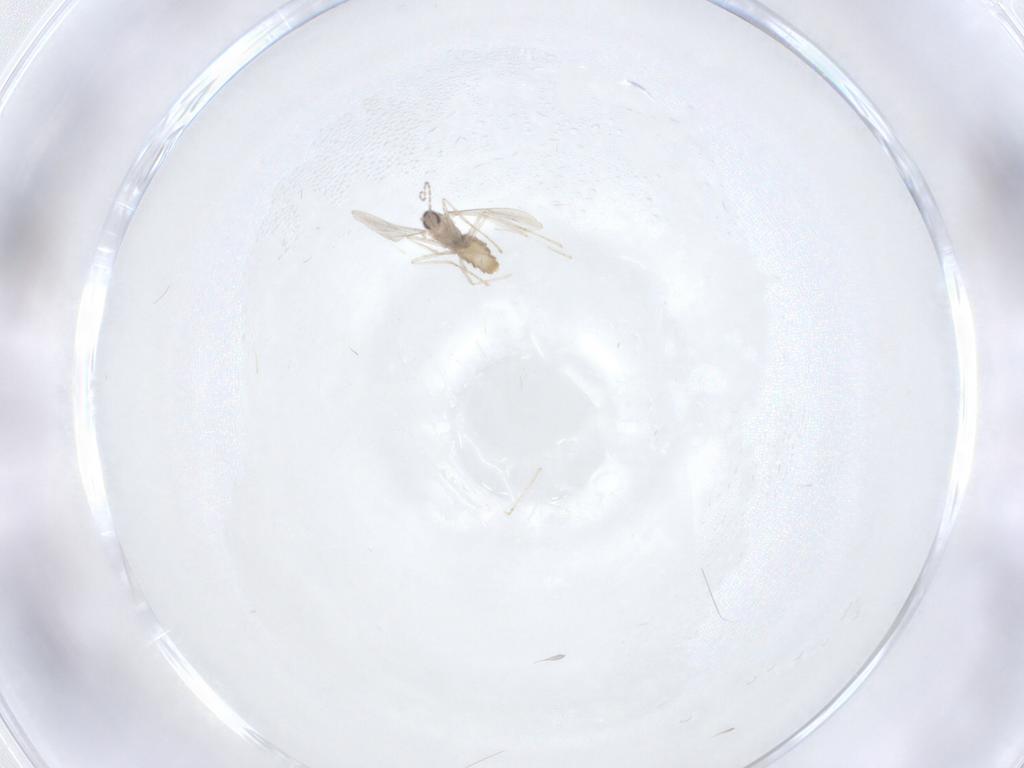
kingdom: Animalia
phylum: Arthropoda
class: Insecta
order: Diptera
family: Cecidomyiidae
